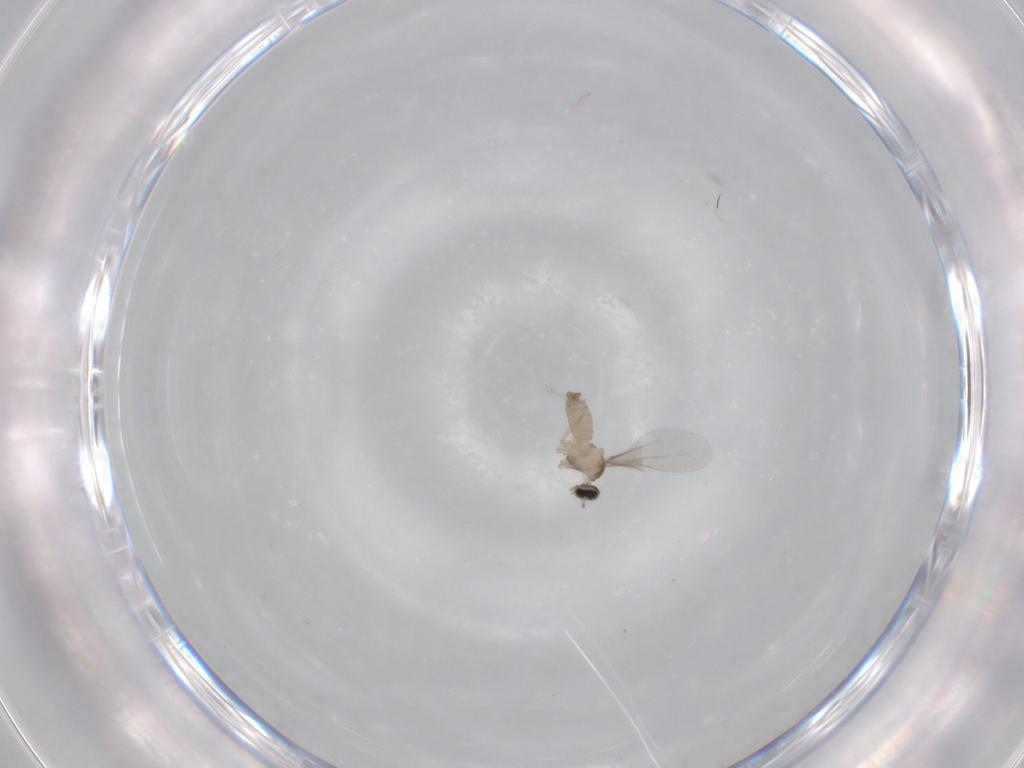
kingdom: Animalia
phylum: Arthropoda
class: Insecta
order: Diptera
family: Cecidomyiidae
